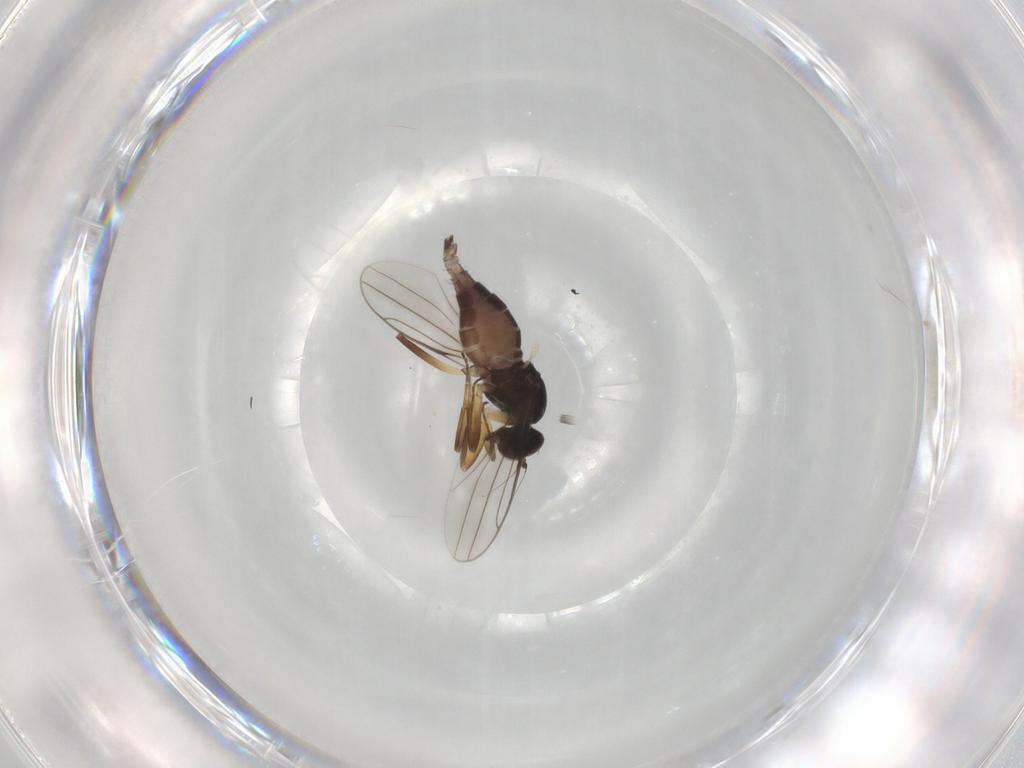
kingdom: Animalia
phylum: Arthropoda
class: Insecta
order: Diptera
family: Hybotidae
